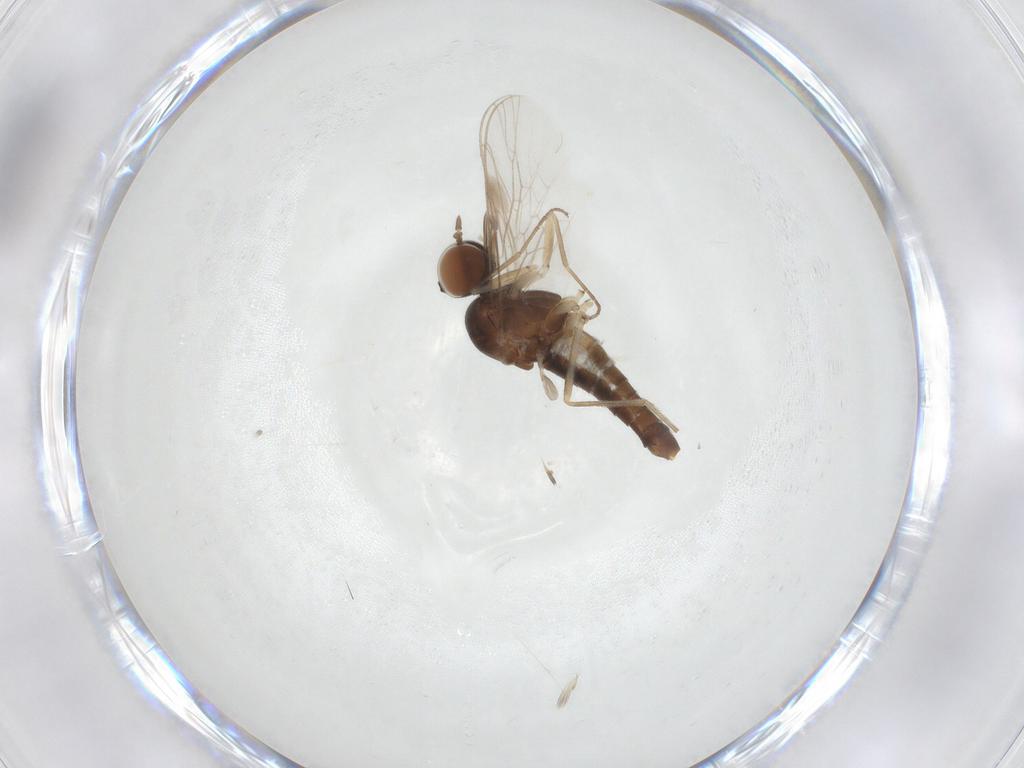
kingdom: Animalia
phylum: Arthropoda
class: Insecta
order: Diptera
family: Scenopinidae
